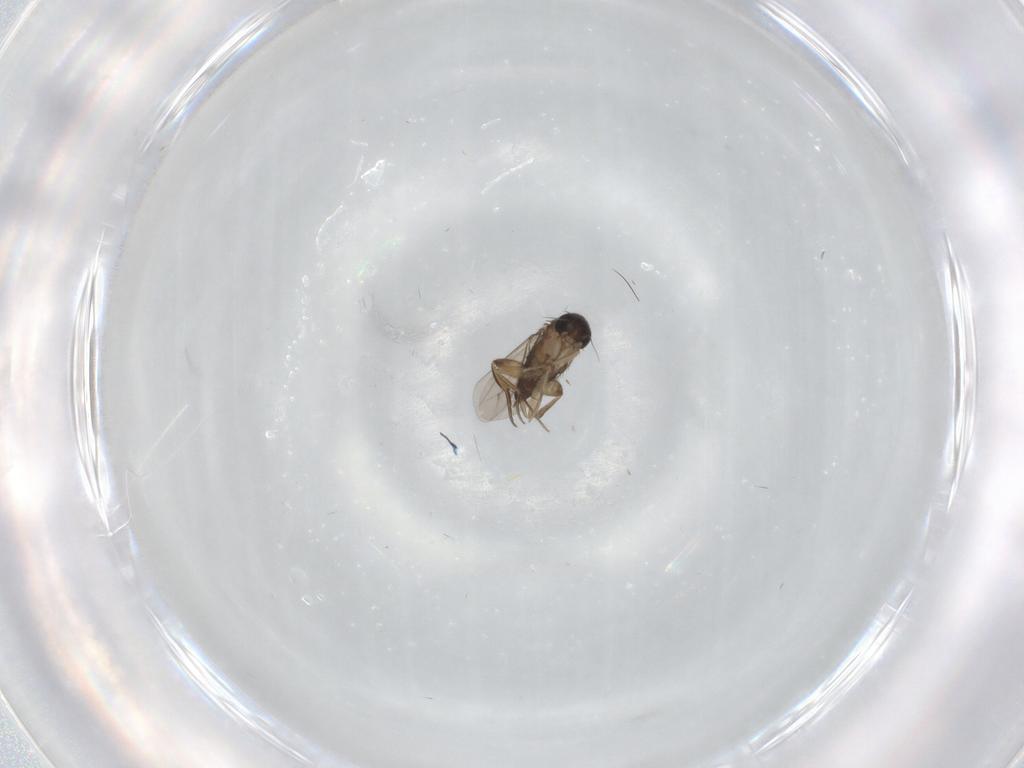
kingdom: Animalia
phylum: Arthropoda
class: Insecta
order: Diptera
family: Phoridae
